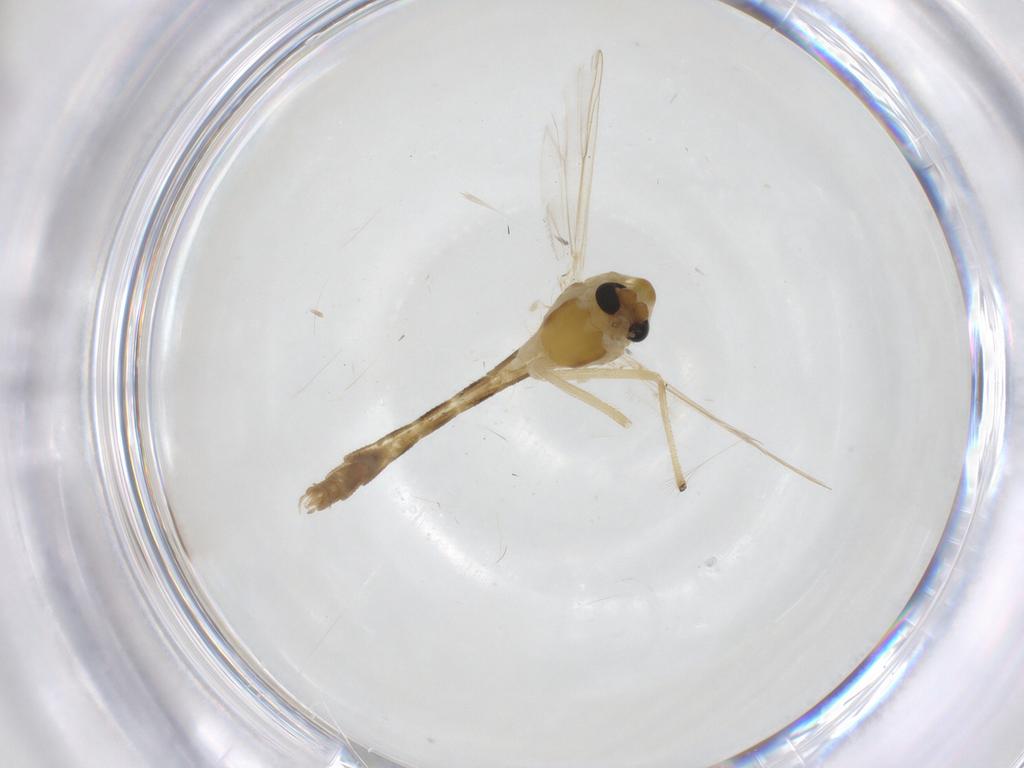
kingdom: Animalia
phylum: Arthropoda
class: Insecta
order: Diptera
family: Chironomidae
